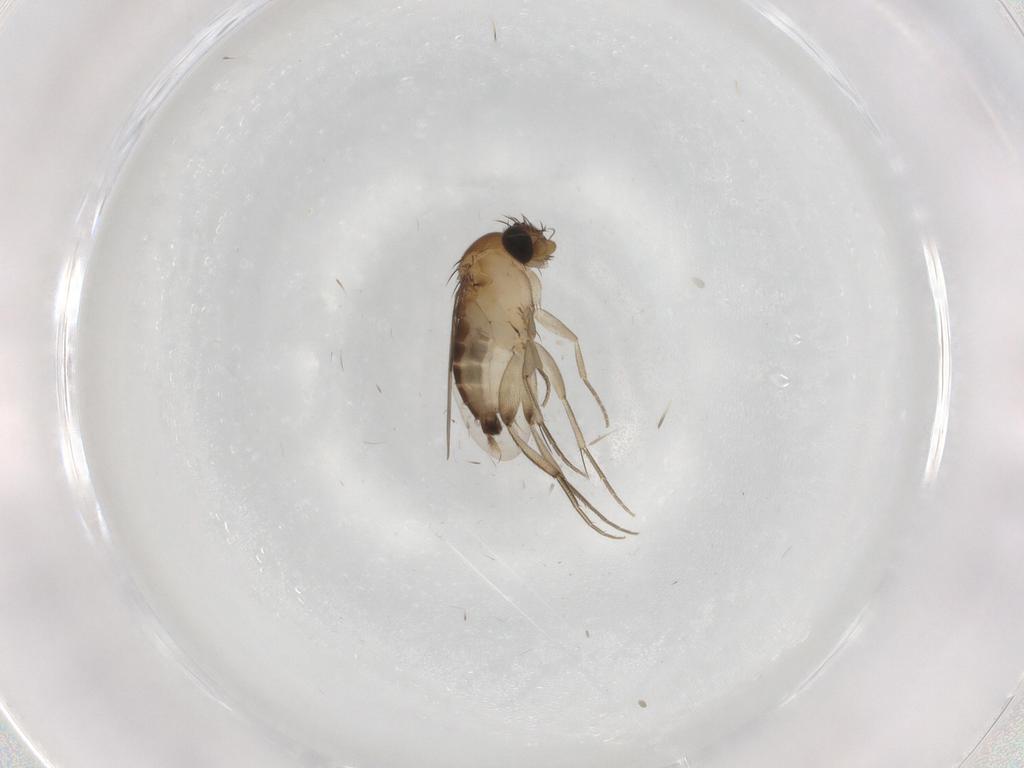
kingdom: Animalia
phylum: Arthropoda
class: Insecta
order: Diptera
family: Phoridae
